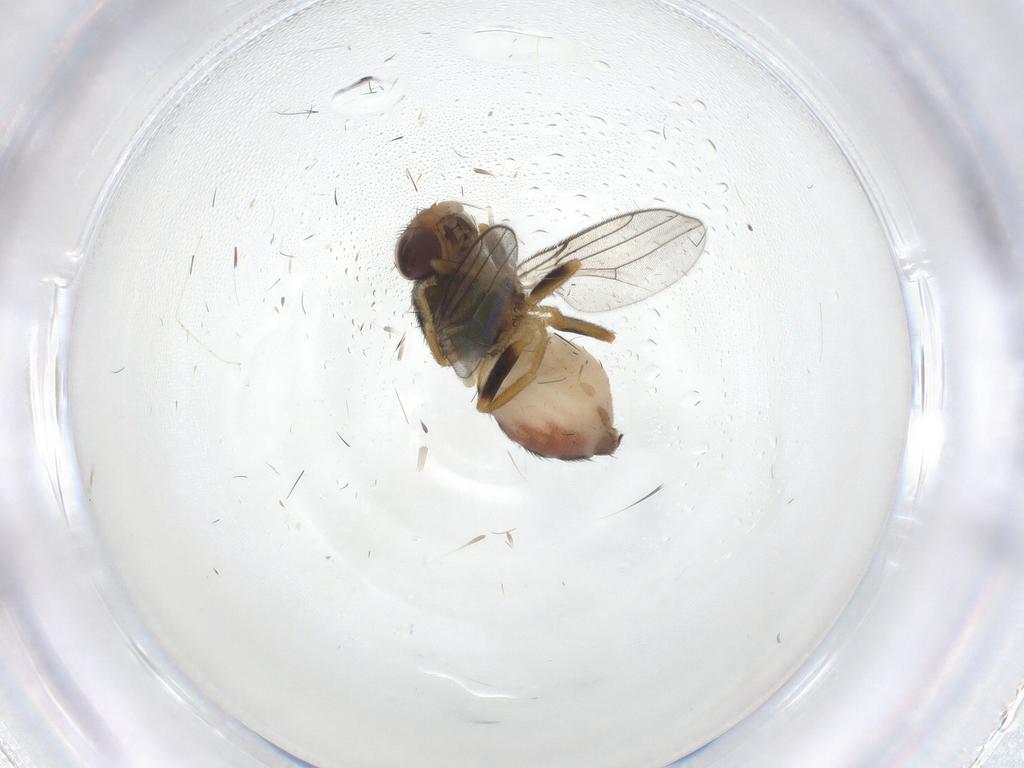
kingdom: Animalia
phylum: Arthropoda
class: Insecta
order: Diptera
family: Chloropidae
